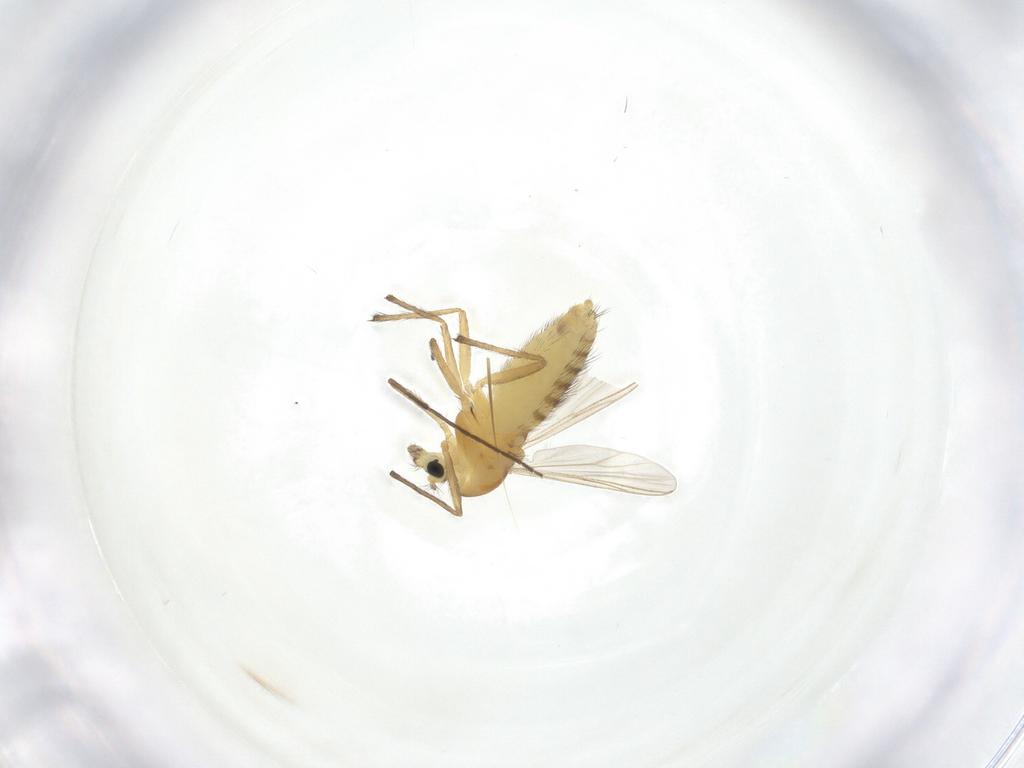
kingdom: Animalia
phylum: Arthropoda
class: Insecta
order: Diptera
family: Chironomidae
